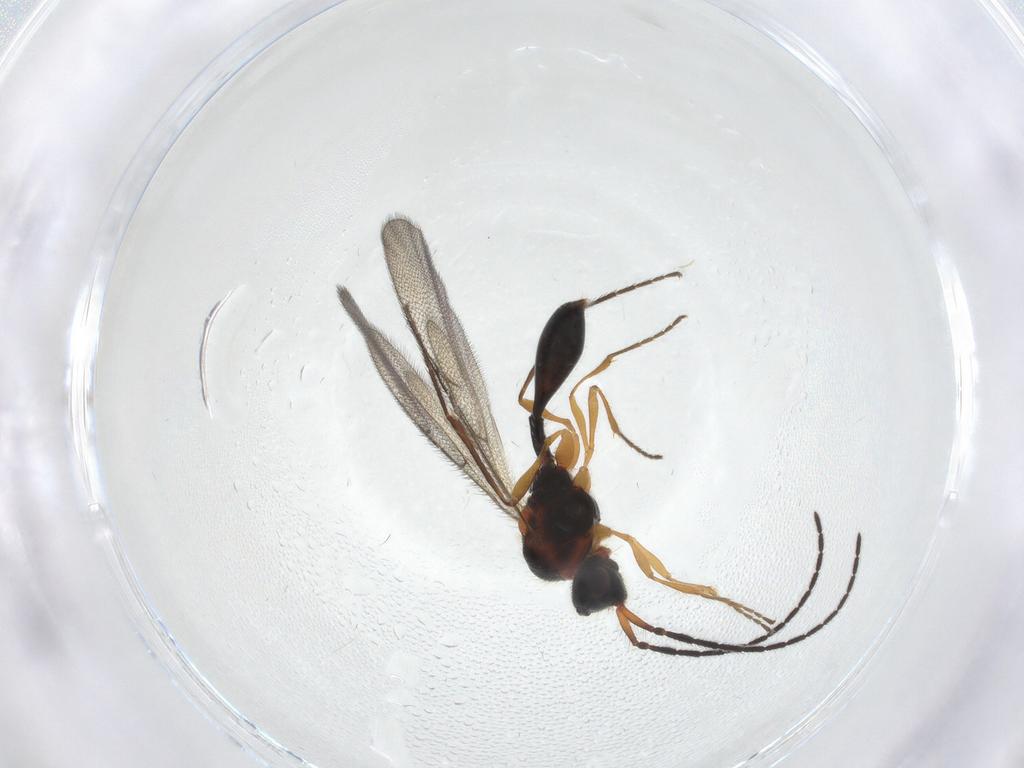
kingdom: Animalia
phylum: Arthropoda
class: Insecta
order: Hymenoptera
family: Diapriidae
